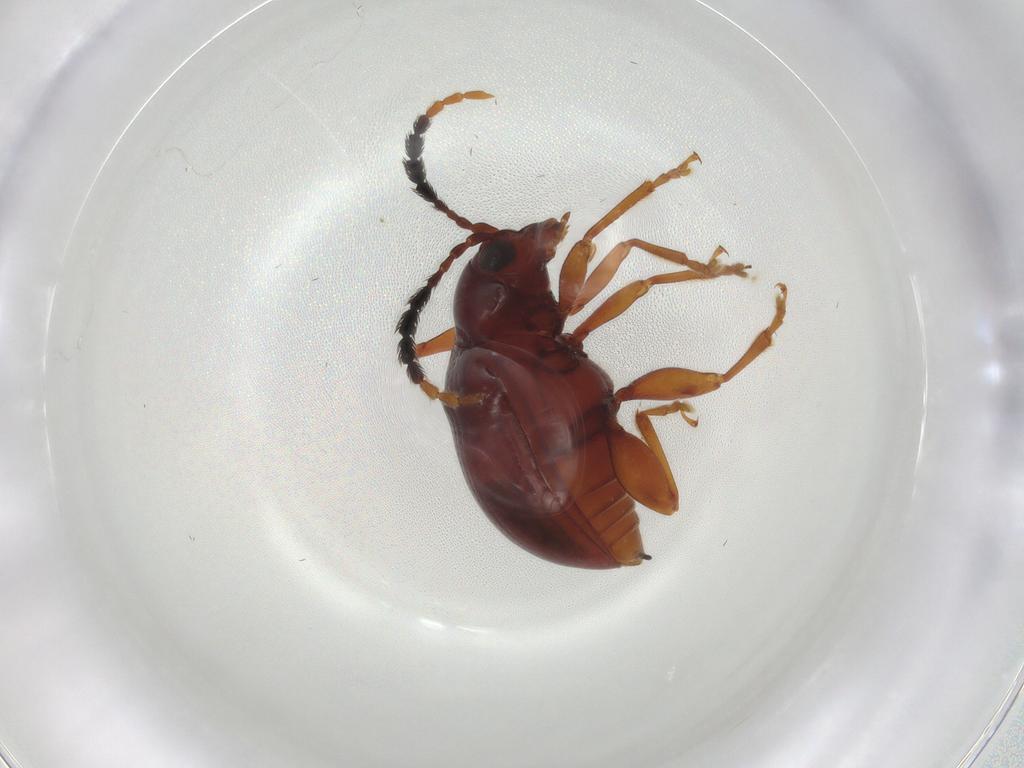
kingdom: Animalia
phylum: Arthropoda
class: Insecta
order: Coleoptera
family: Chrysomelidae
